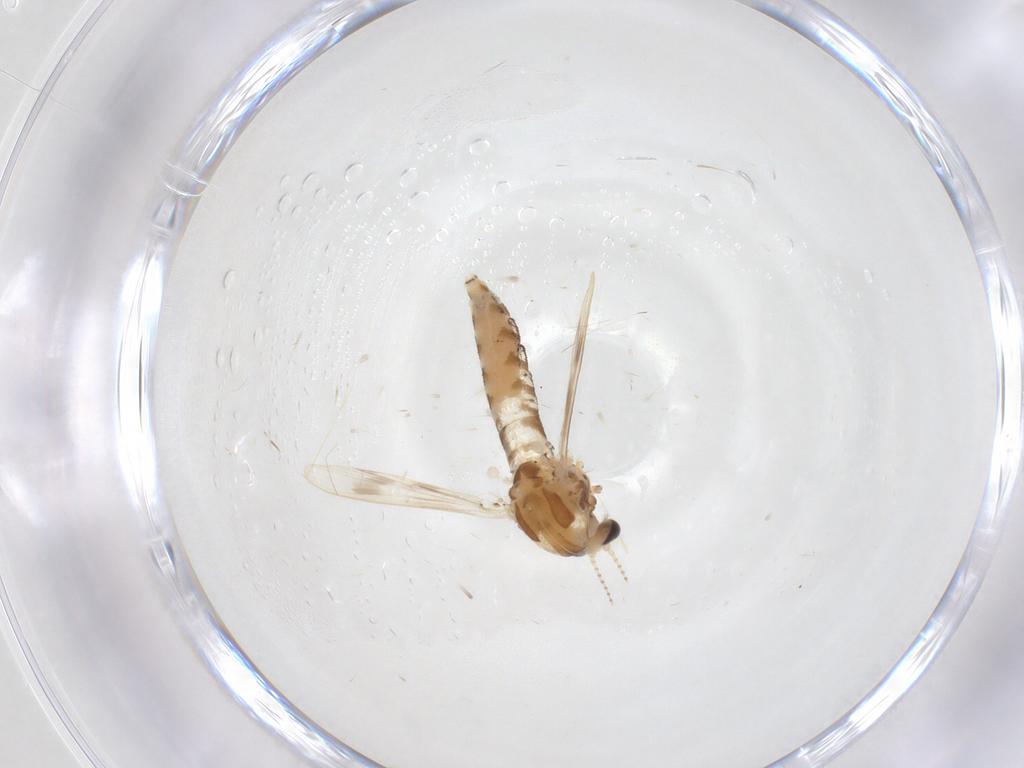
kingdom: Animalia
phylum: Arthropoda
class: Insecta
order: Diptera
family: Corethrellidae
